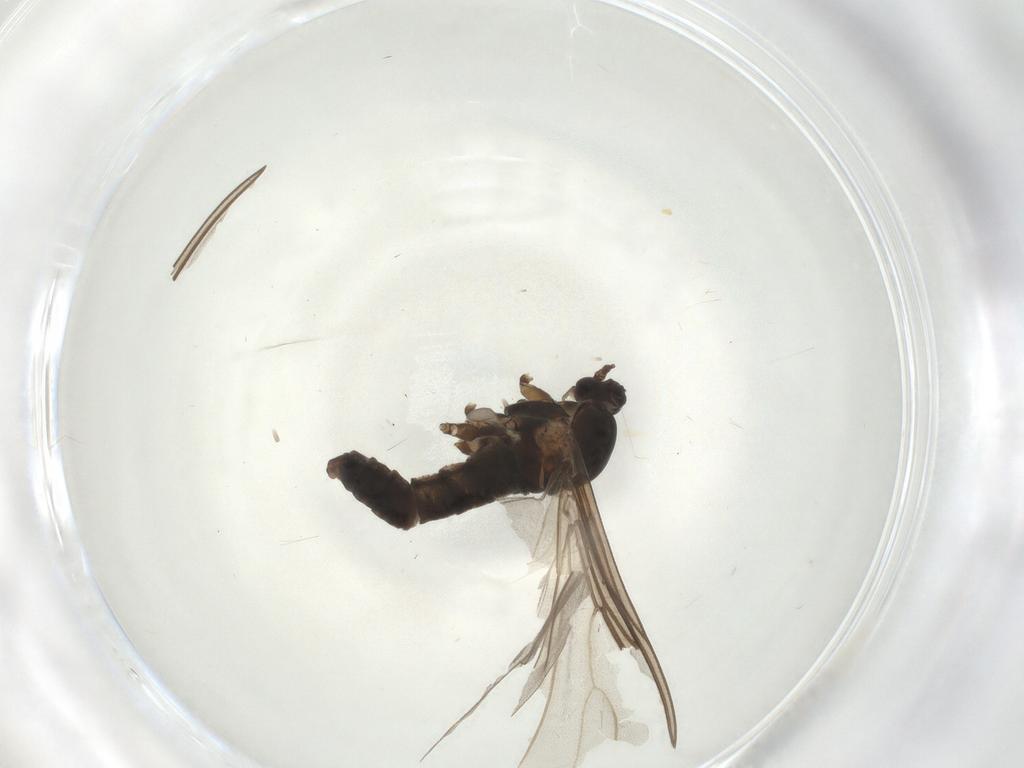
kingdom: Animalia
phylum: Arthropoda
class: Insecta
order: Diptera
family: Cecidomyiidae
